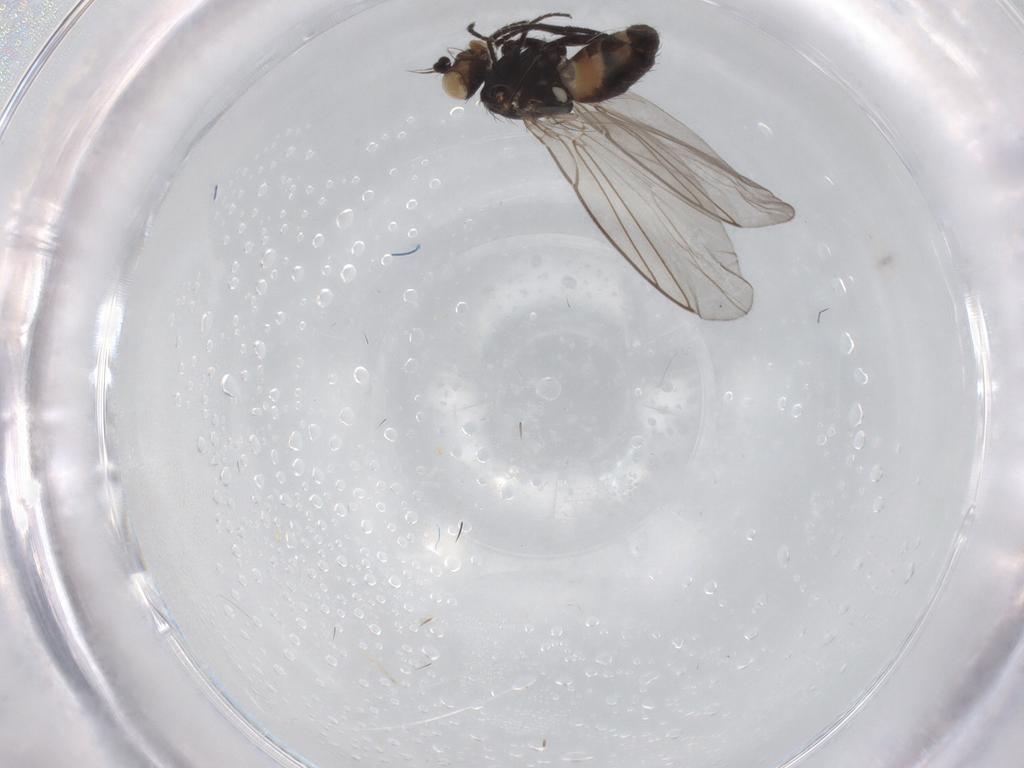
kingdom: Animalia
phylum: Arthropoda
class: Insecta
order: Diptera
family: Agromyzidae
